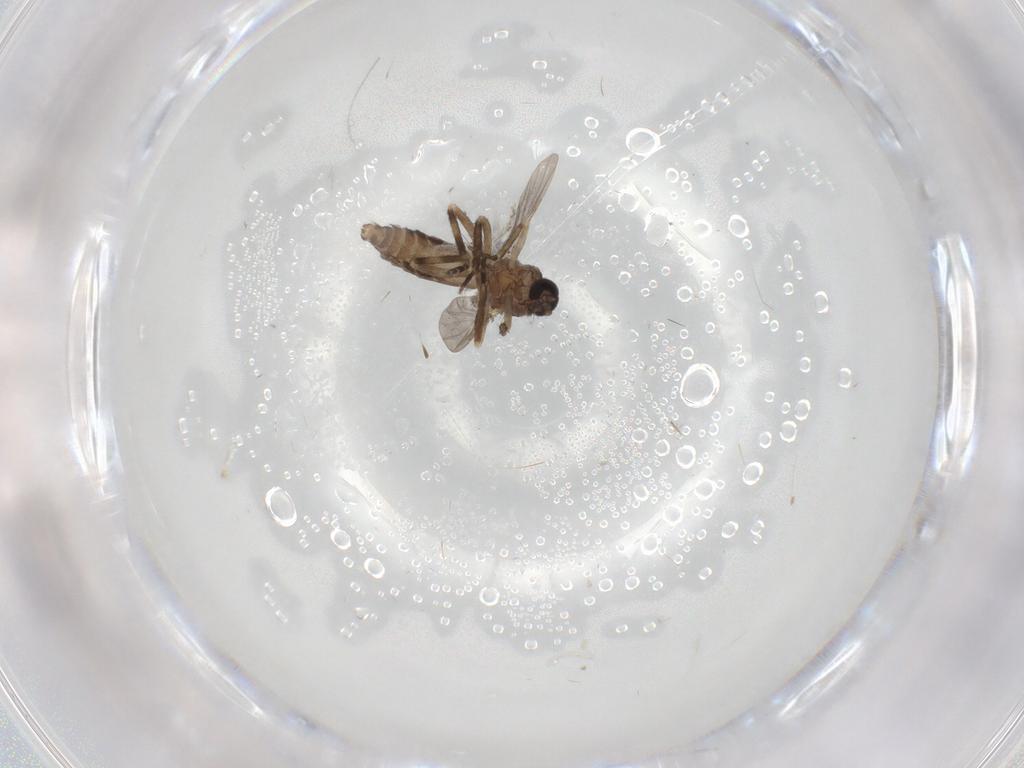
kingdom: Animalia
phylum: Arthropoda
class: Insecta
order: Diptera
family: Ceratopogonidae
